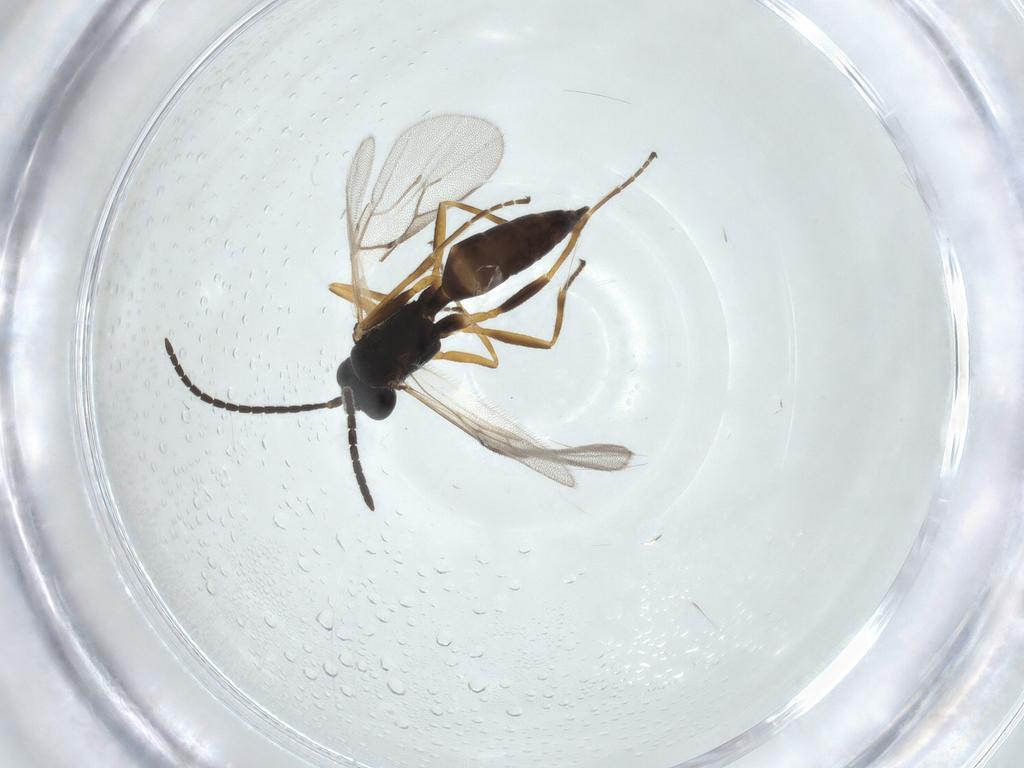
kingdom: Animalia
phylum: Arthropoda
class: Insecta
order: Hymenoptera
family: Braconidae
